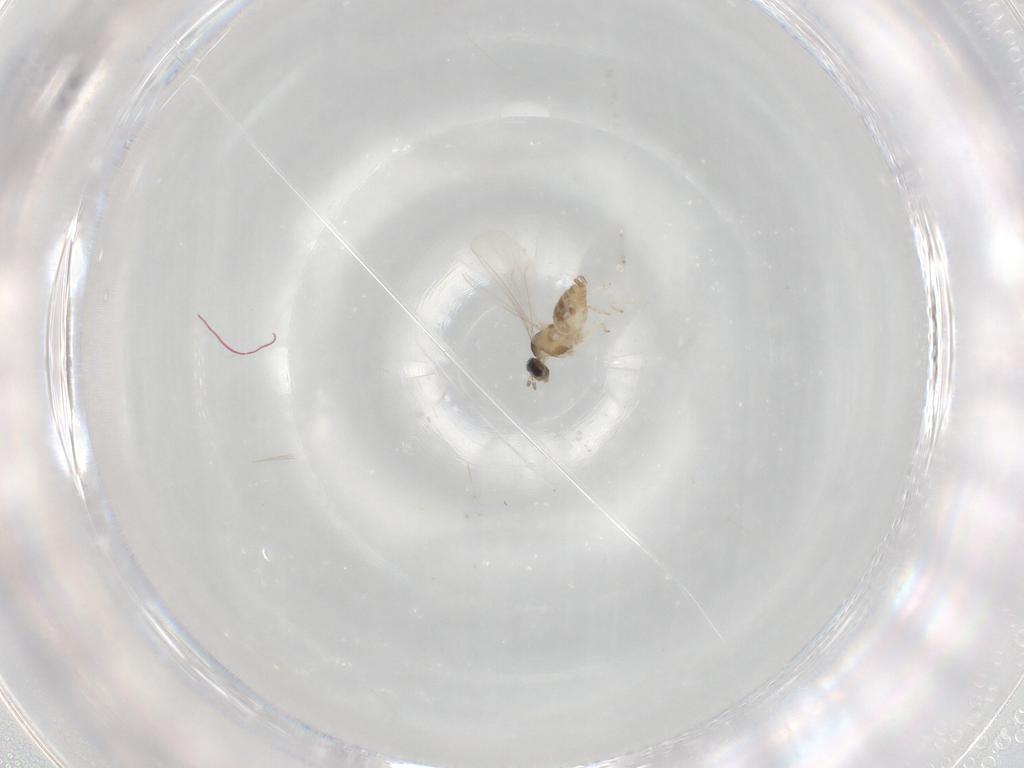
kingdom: Animalia
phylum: Arthropoda
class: Insecta
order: Diptera
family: Cecidomyiidae
